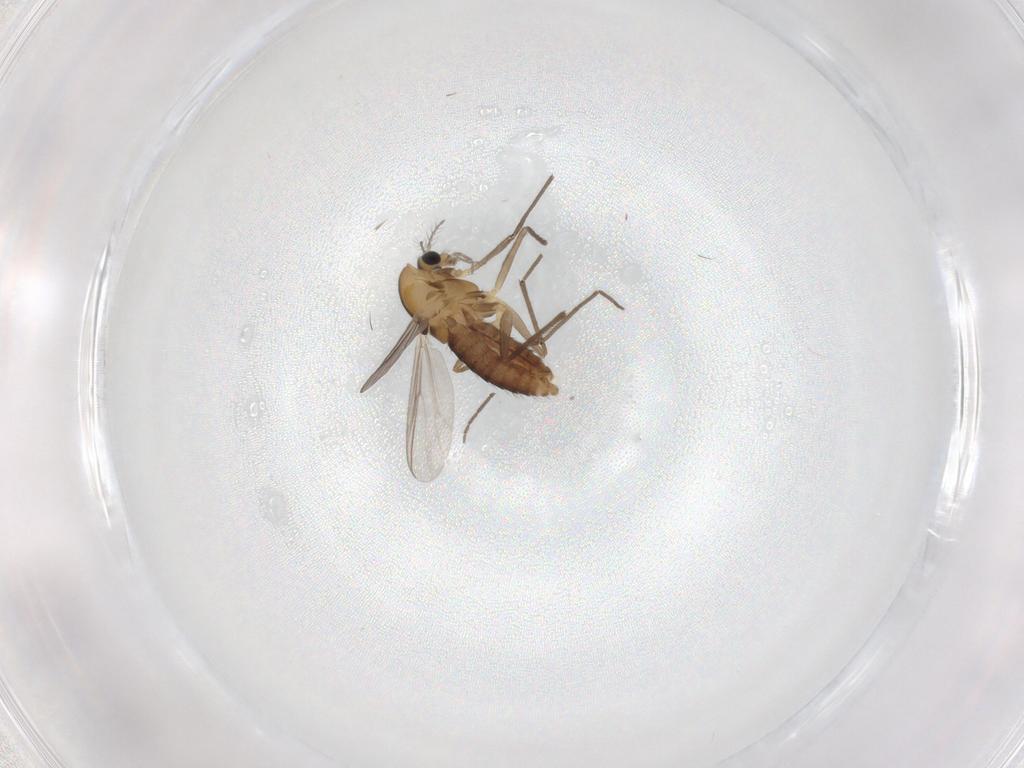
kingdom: Animalia
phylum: Arthropoda
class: Insecta
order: Diptera
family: Chironomidae
